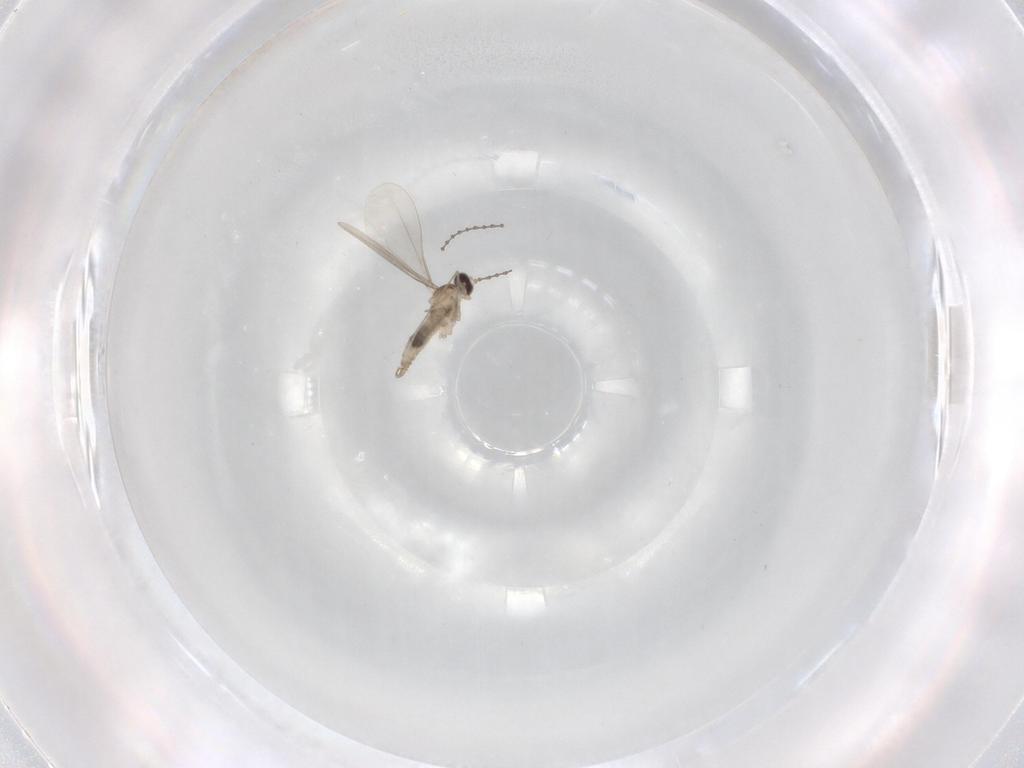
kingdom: Animalia
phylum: Arthropoda
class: Insecta
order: Diptera
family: Cecidomyiidae
